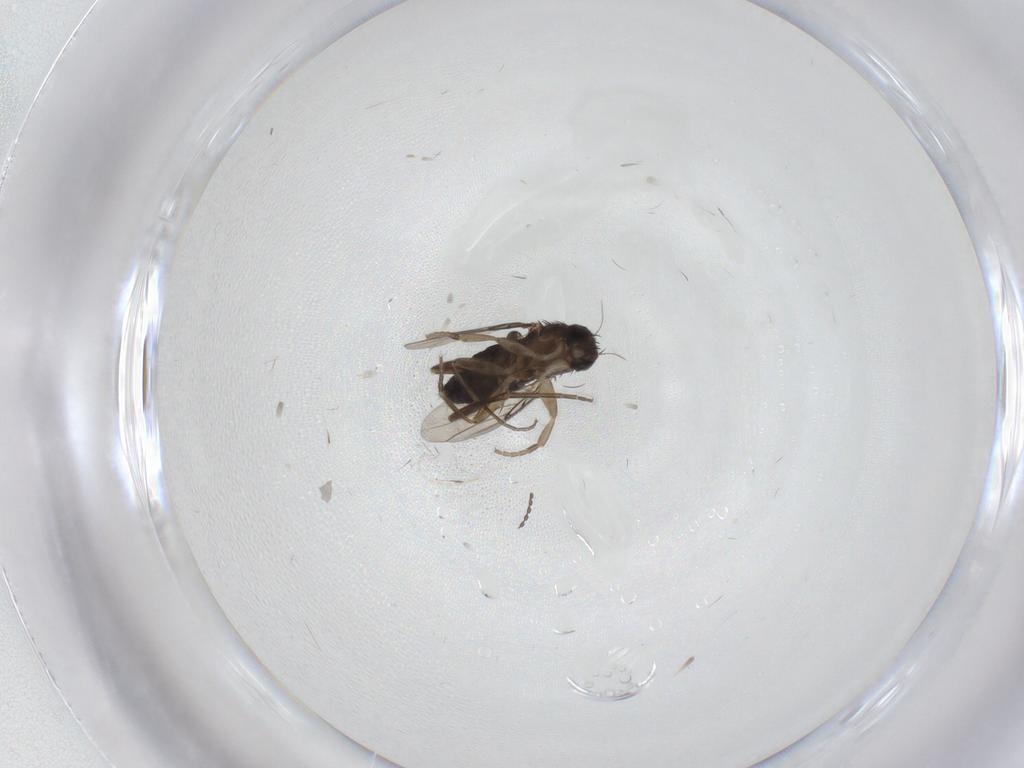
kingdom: Animalia
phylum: Arthropoda
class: Insecta
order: Diptera
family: Phoridae
